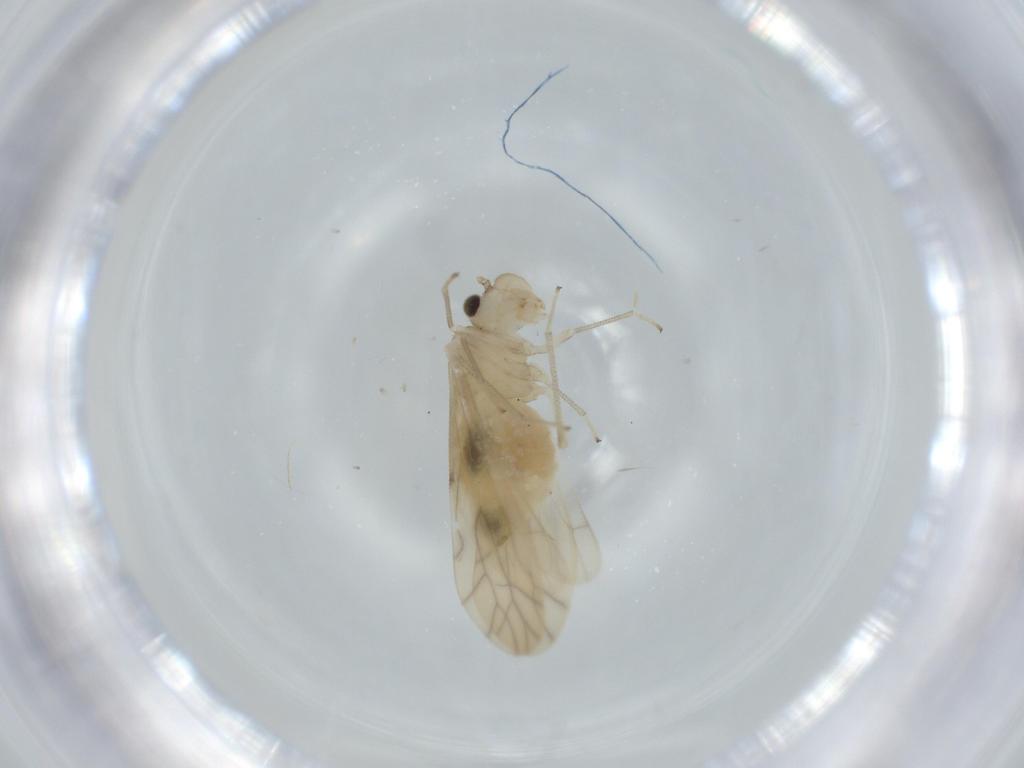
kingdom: Animalia
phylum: Arthropoda
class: Insecta
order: Psocodea
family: Caeciliusidae
